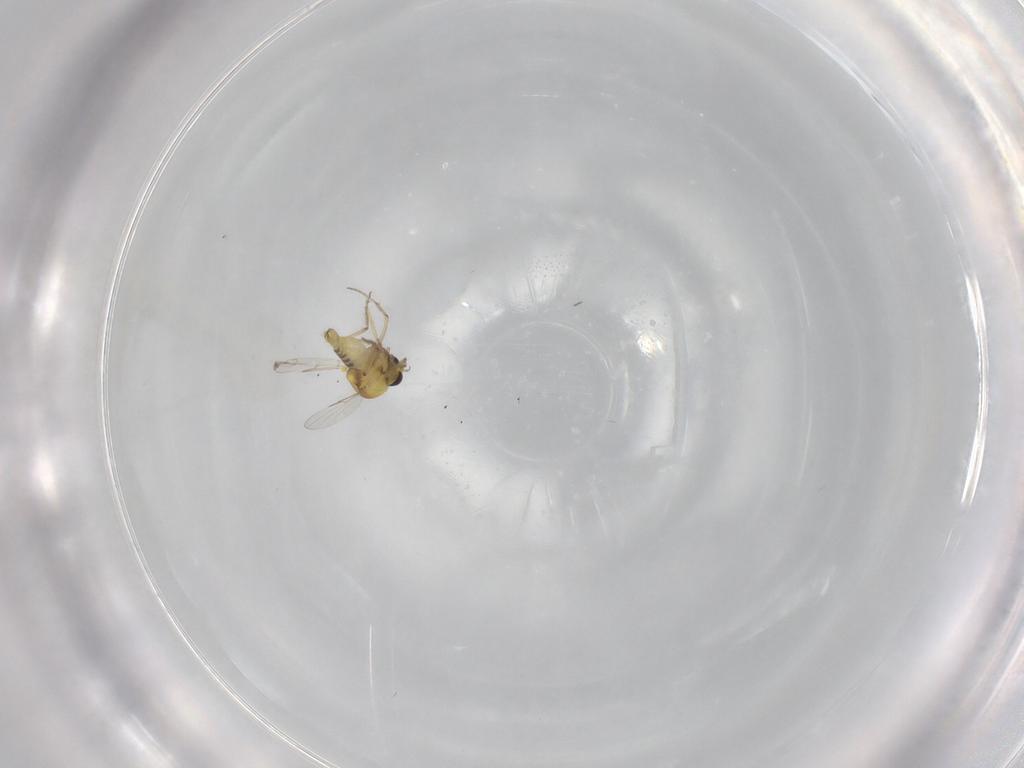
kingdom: Animalia
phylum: Arthropoda
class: Insecta
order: Diptera
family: Ceratopogonidae
